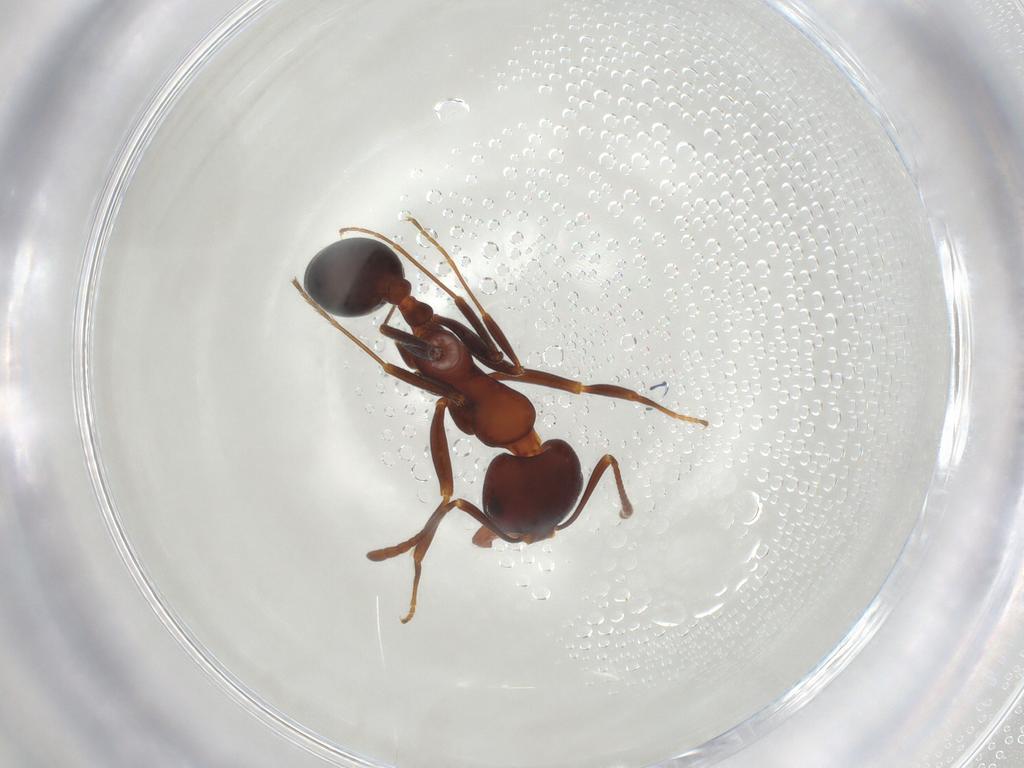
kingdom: Animalia
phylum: Arthropoda
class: Insecta
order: Hymenoptera
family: Formicidae
